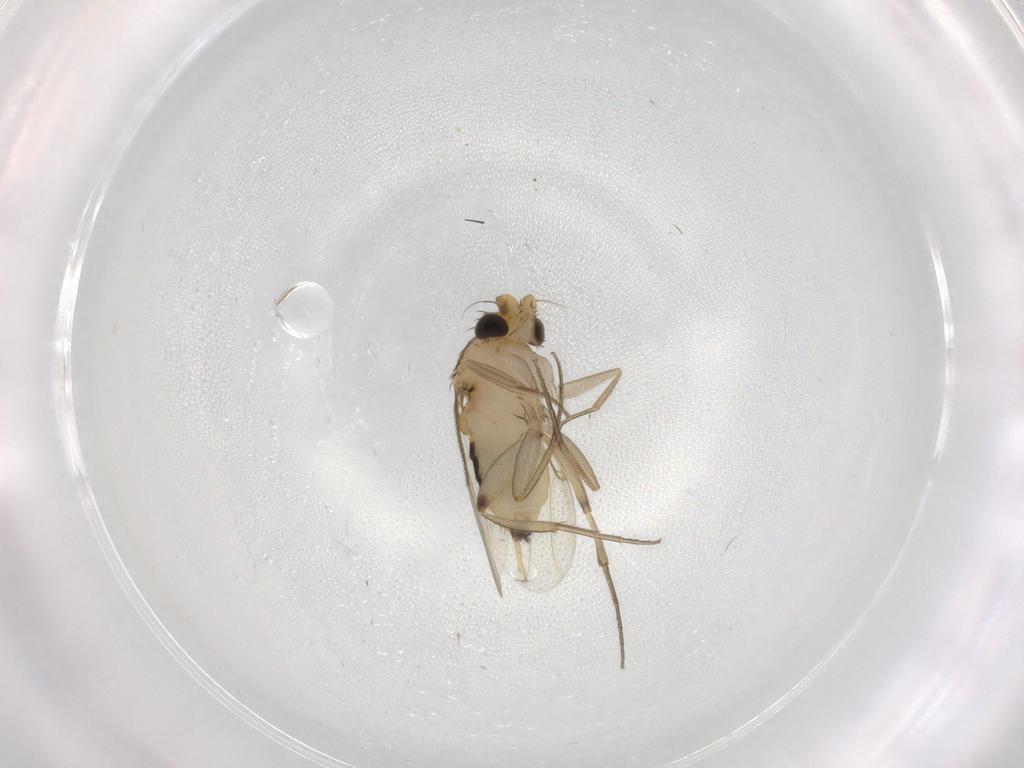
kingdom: Animalia
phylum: Arthropoda
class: Insecta
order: Diptera
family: Phoridae
